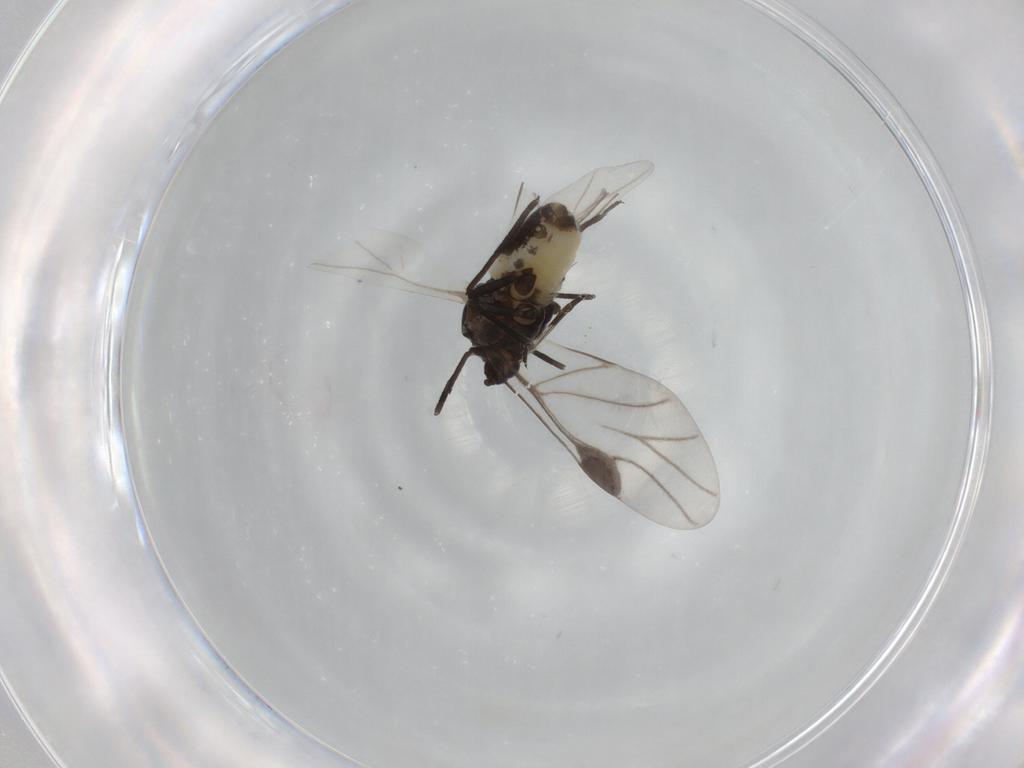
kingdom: Animalia
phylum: Arthropoda
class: Insecta
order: Hemiptera
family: Aphididae
